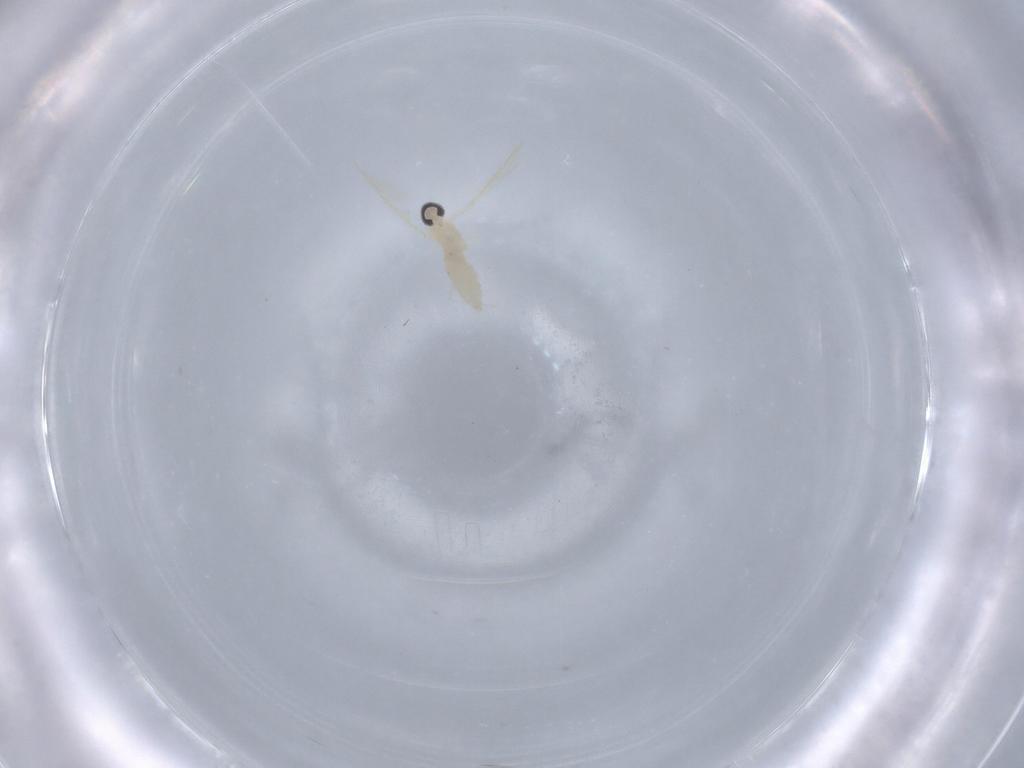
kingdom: Animalia
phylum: Arthropoda
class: Insecta
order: Diptera
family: Cecidomyiidae
